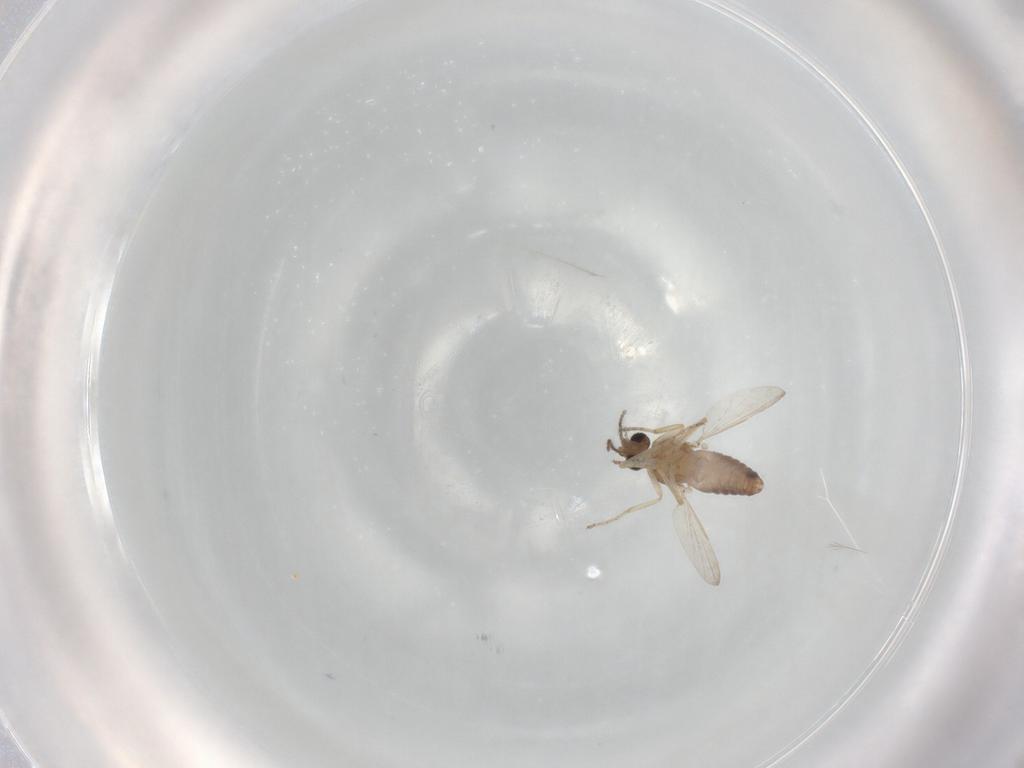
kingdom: Animalia
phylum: Arthropoda
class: Insecta
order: Diptera
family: Ceratopogonidae
